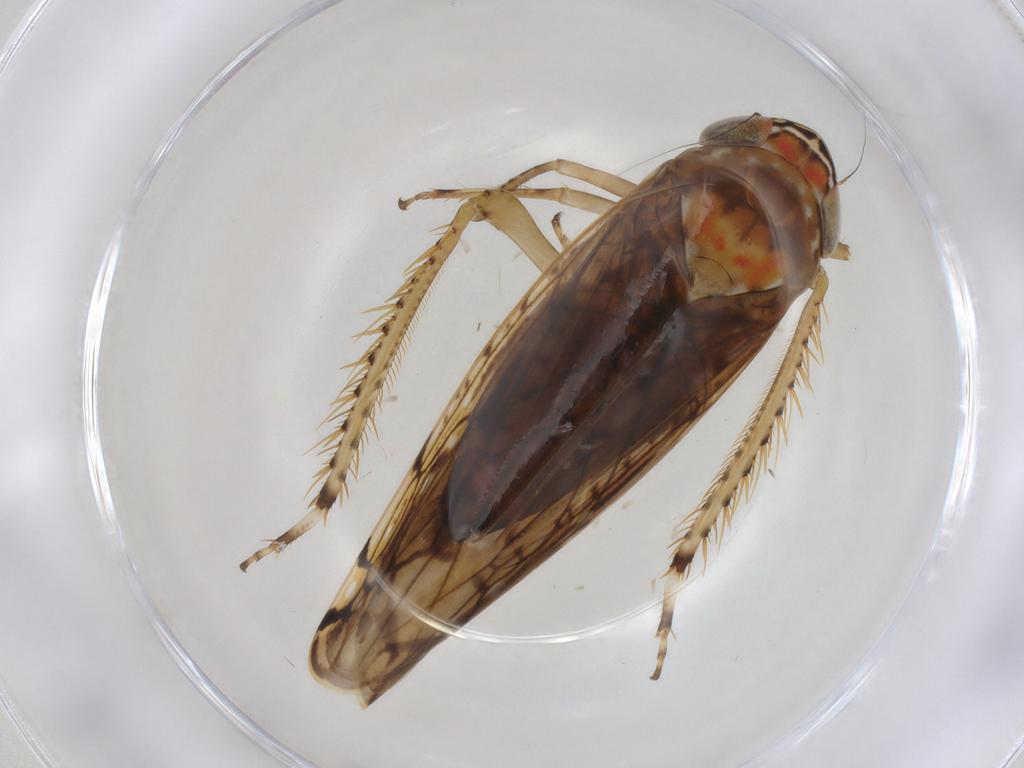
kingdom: Animalia
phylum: Arthropoda
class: Insecta
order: Hemiptera
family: Cicadellidae
